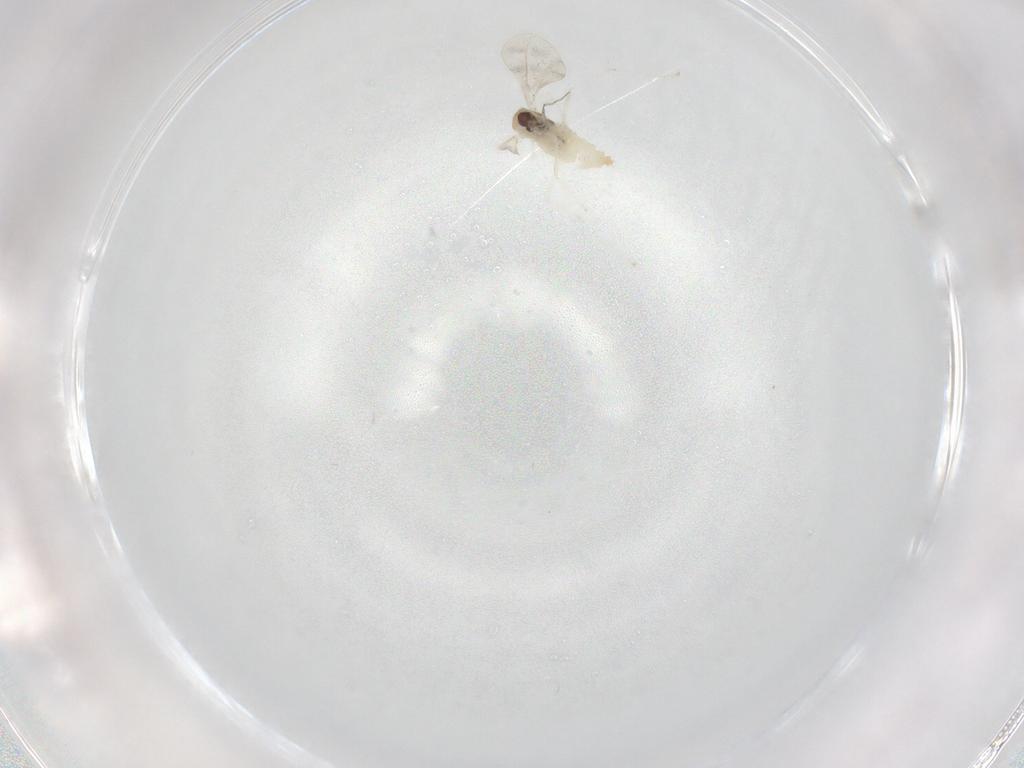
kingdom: Animalia
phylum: Arthropoda
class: Insecta
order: Diptera
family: Cecidomyiidae
